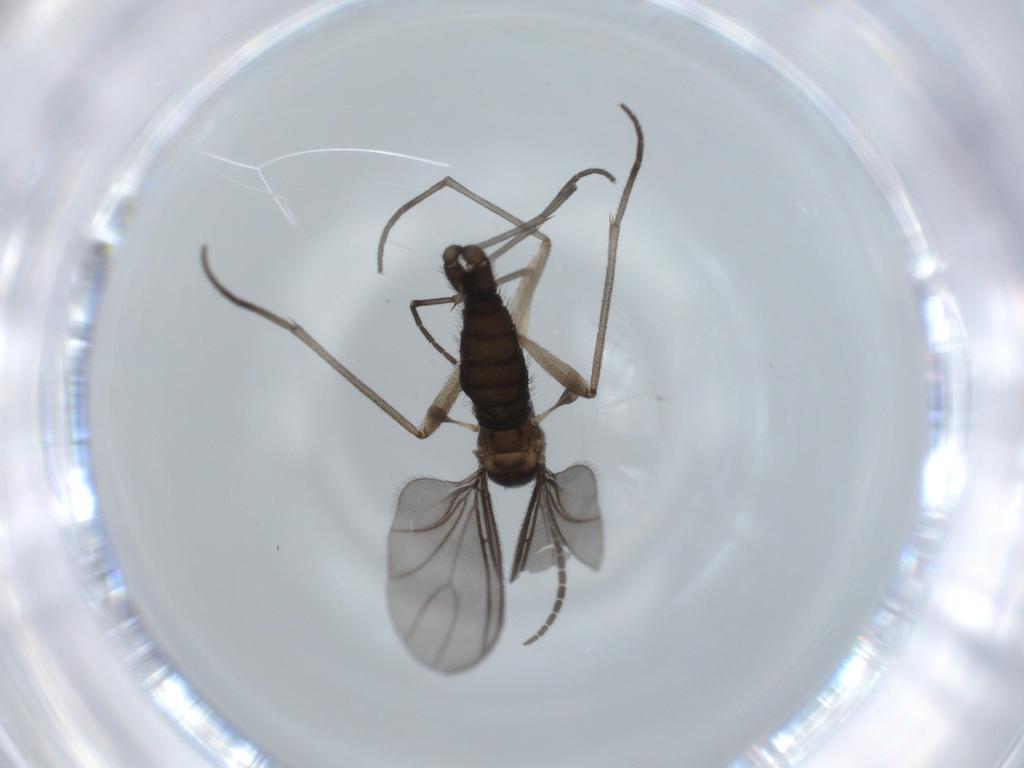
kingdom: Animalia
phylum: Arthropoda
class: Insecta
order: Diptera
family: Sciaridae
